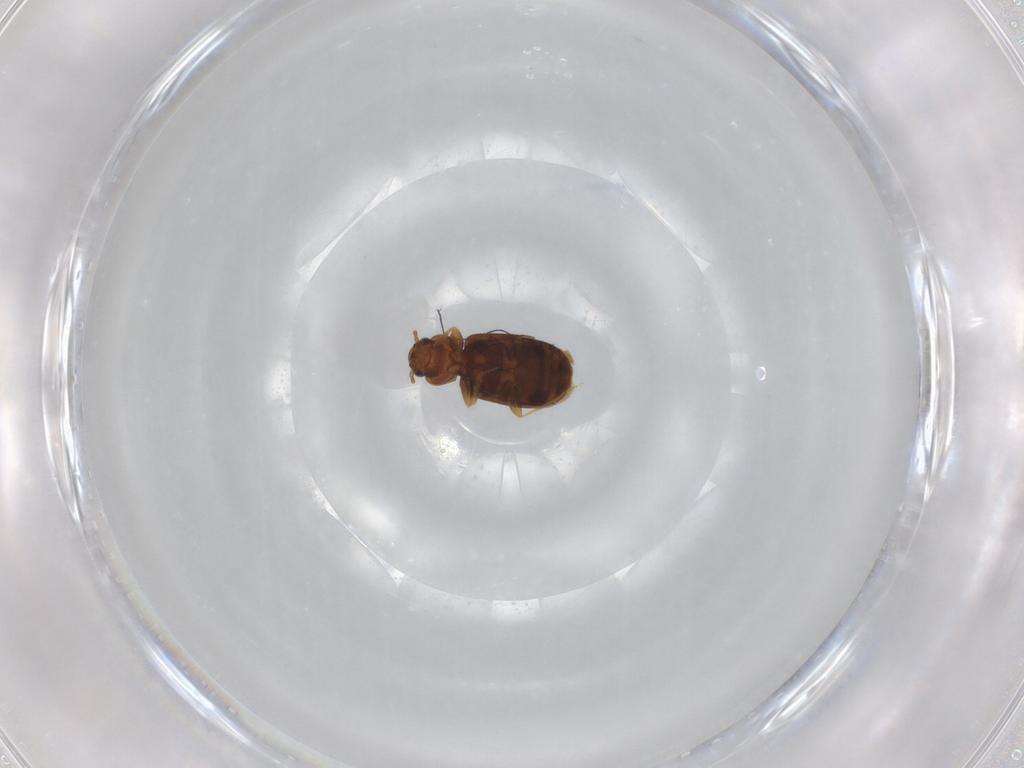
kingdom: Animalia
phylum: Arthropoda
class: Insecta
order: Coleoptera
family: Carabidae
